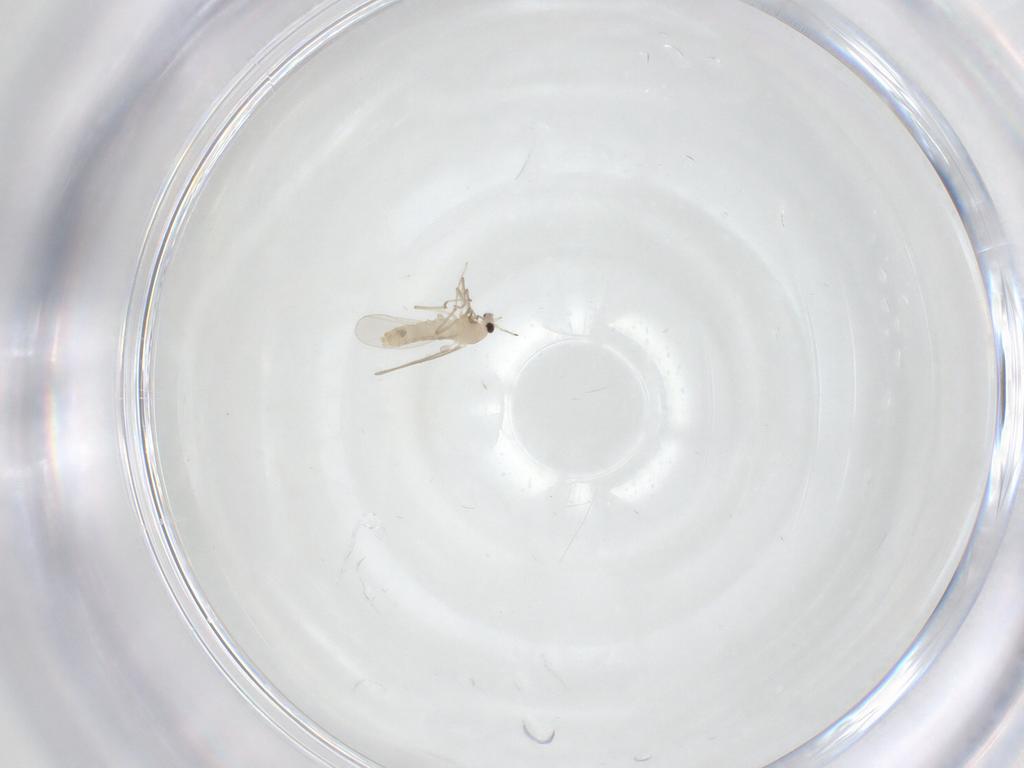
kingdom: Animalia
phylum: Arthropoda
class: Insecta
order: Diptera
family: Chironomidae
